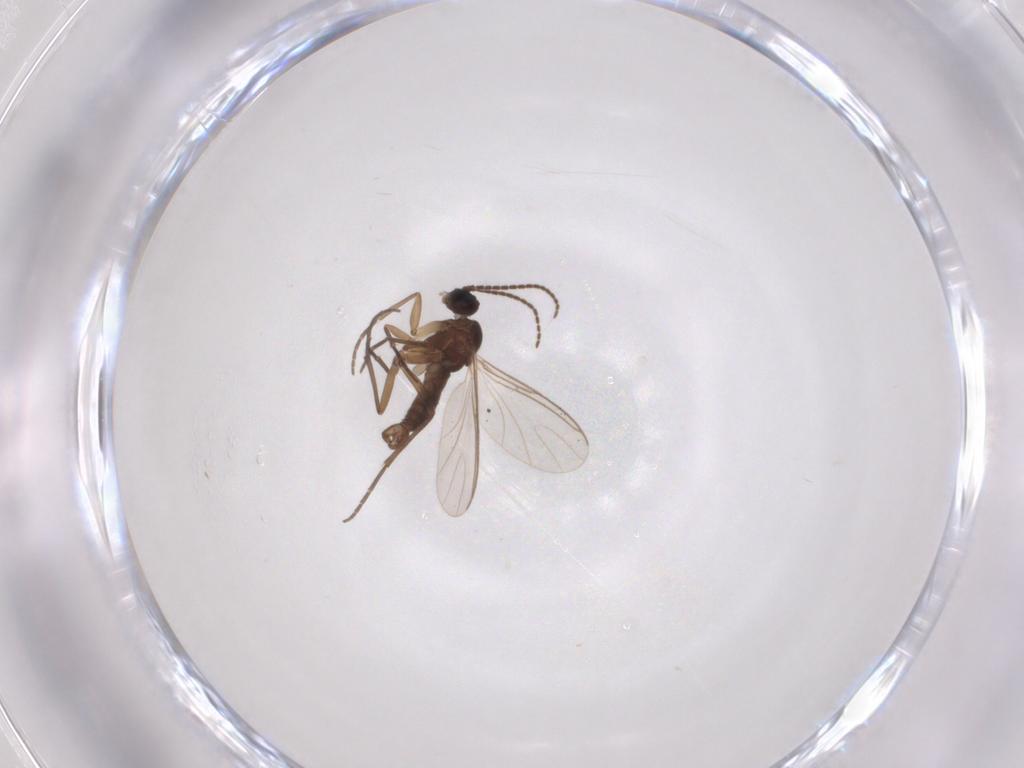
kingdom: Animalia
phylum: Arthropoda
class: Insecta
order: Diptera
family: Sciaridae
